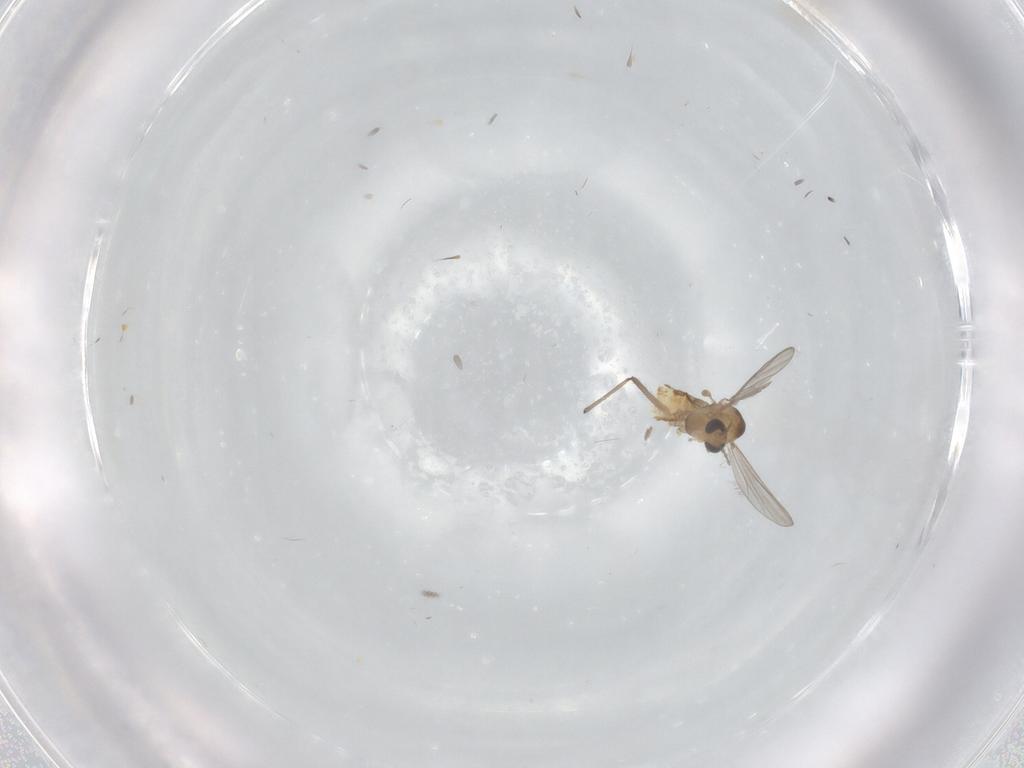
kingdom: Animalia
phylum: Arthropoda
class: Insecta
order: Diptera
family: Chironomidae
